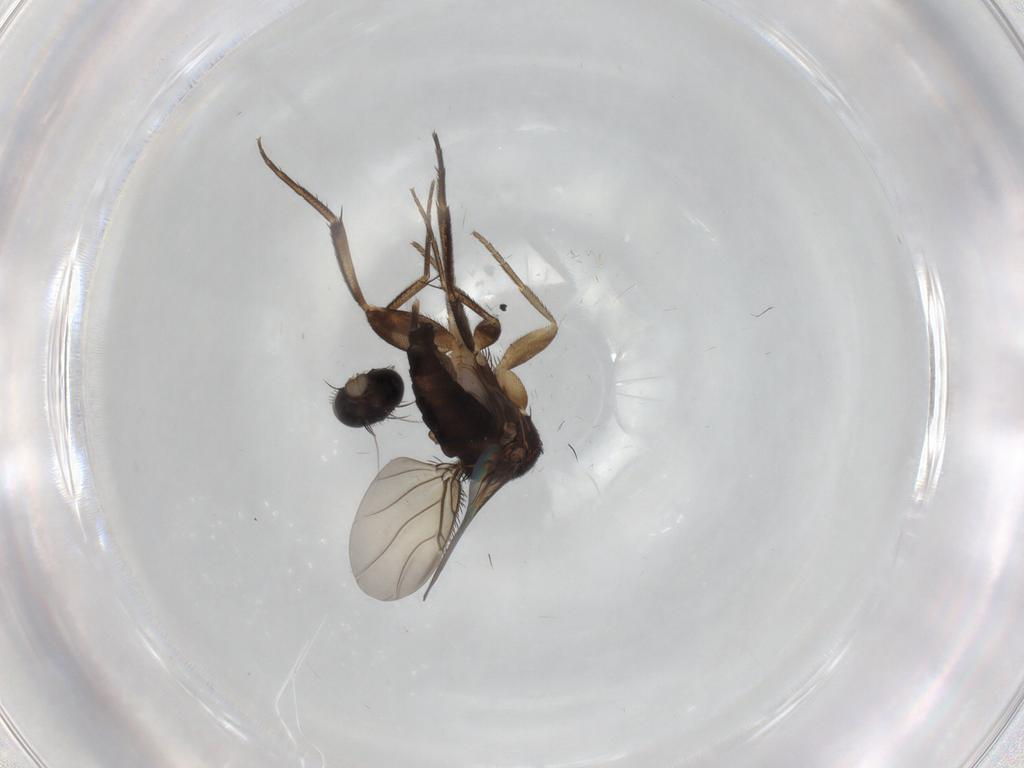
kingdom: Animalia
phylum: Arthropoda
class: Insecta
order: Diptera
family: Phoridae
